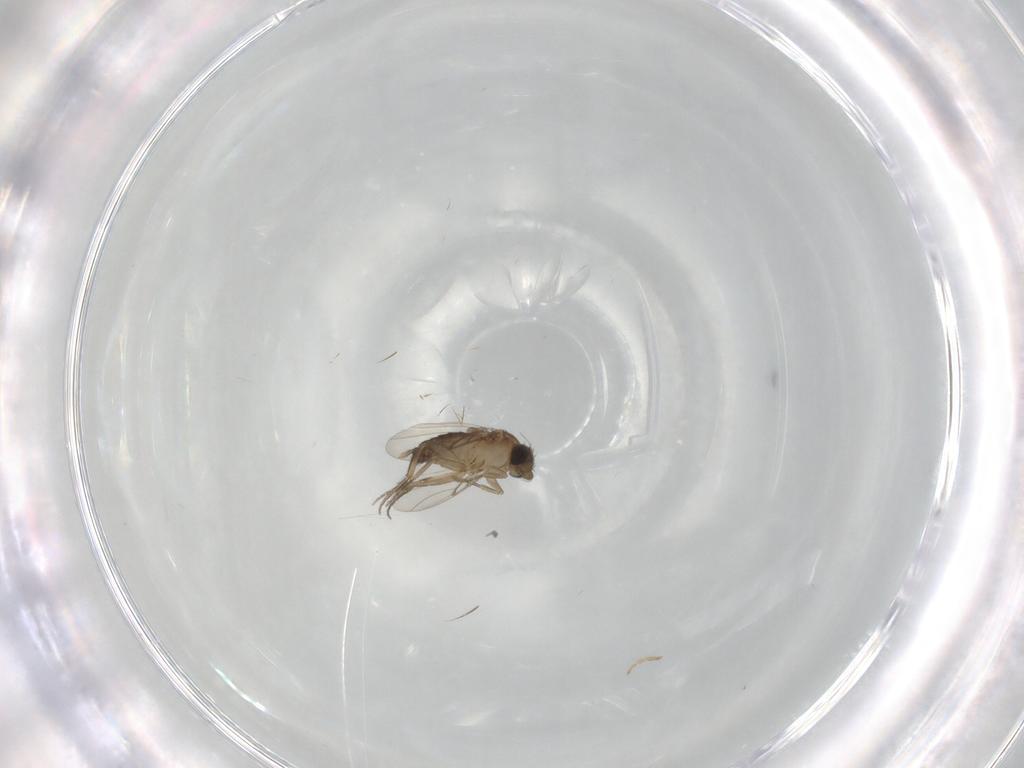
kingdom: Animalia
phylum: Arthropoda
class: Insecta
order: Diptera
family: Phoridae
